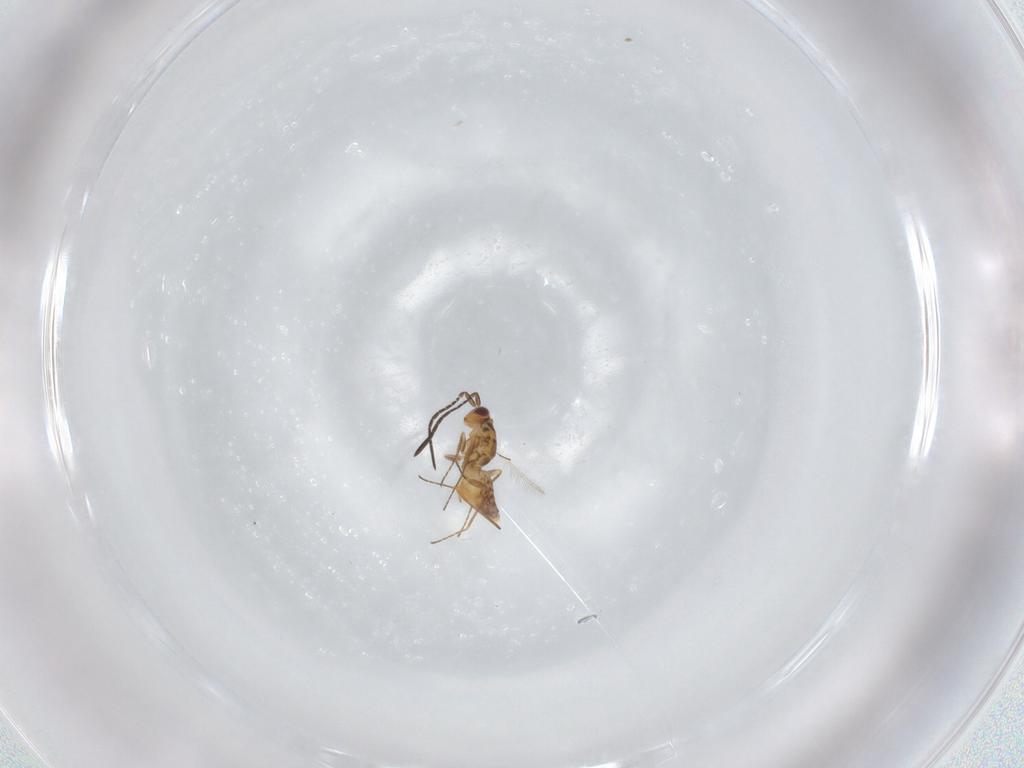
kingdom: Animalia
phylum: Arthropoda
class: Insecta
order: Hymenoptera
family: Mymaridae
